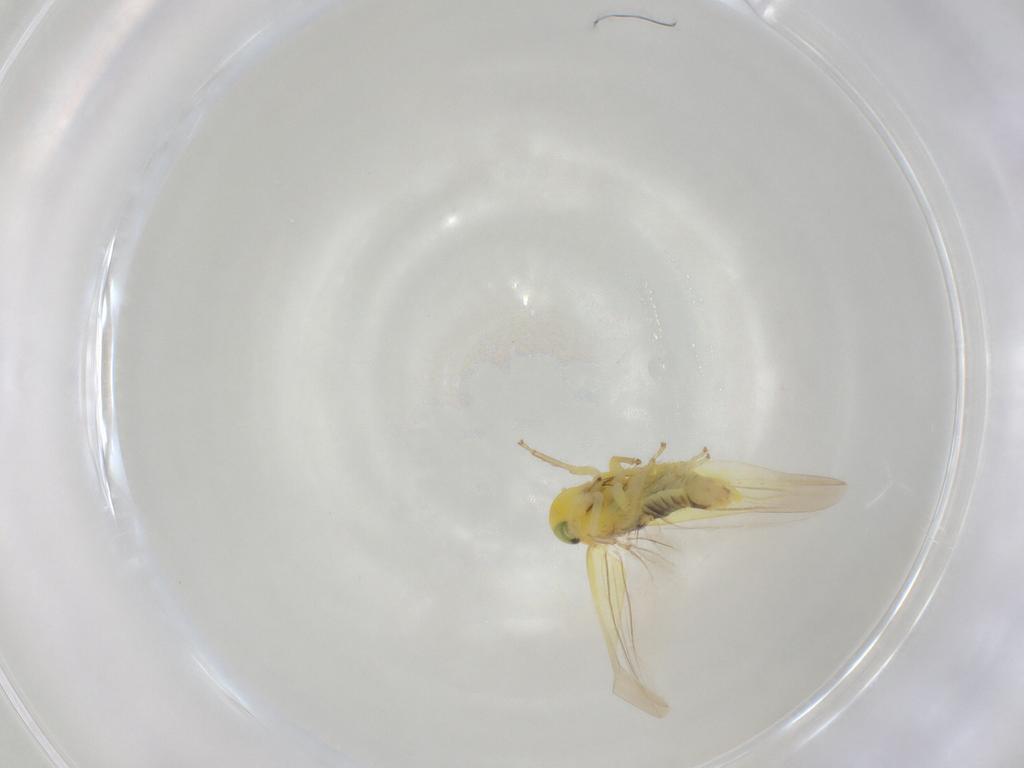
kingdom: Animalia
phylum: Arthropoda
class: Insecta
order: Hemiptera
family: Cicadellidae
